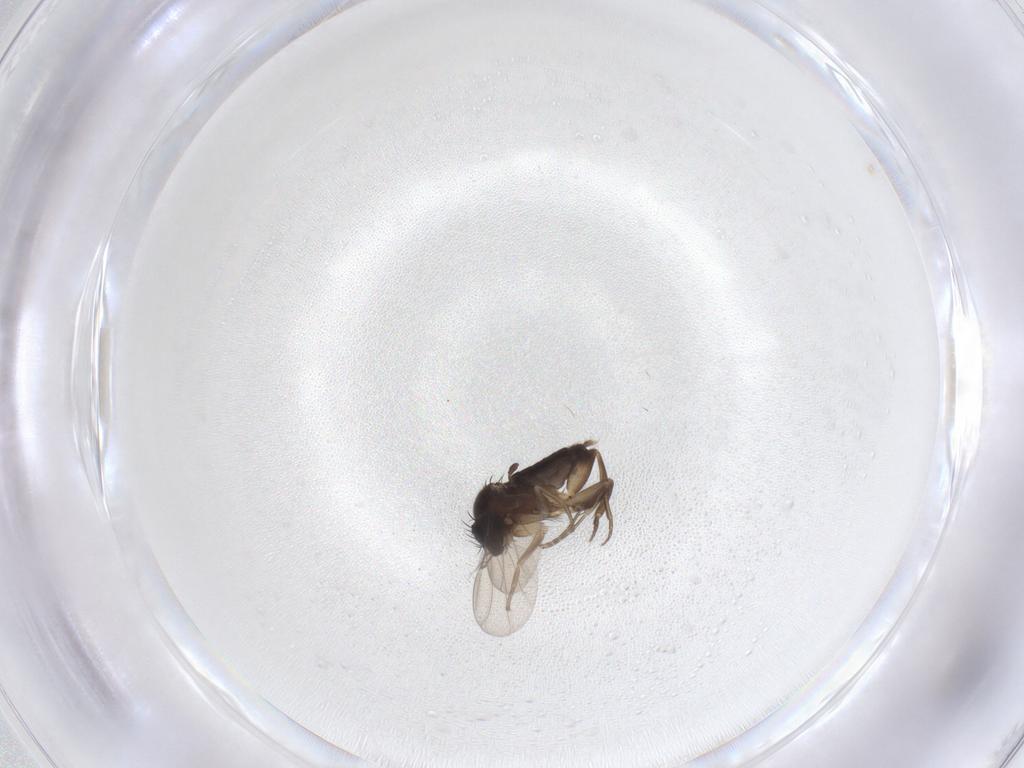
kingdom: Animalia
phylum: Arthropoda
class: Insecta
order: Diptera
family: Phoridae
